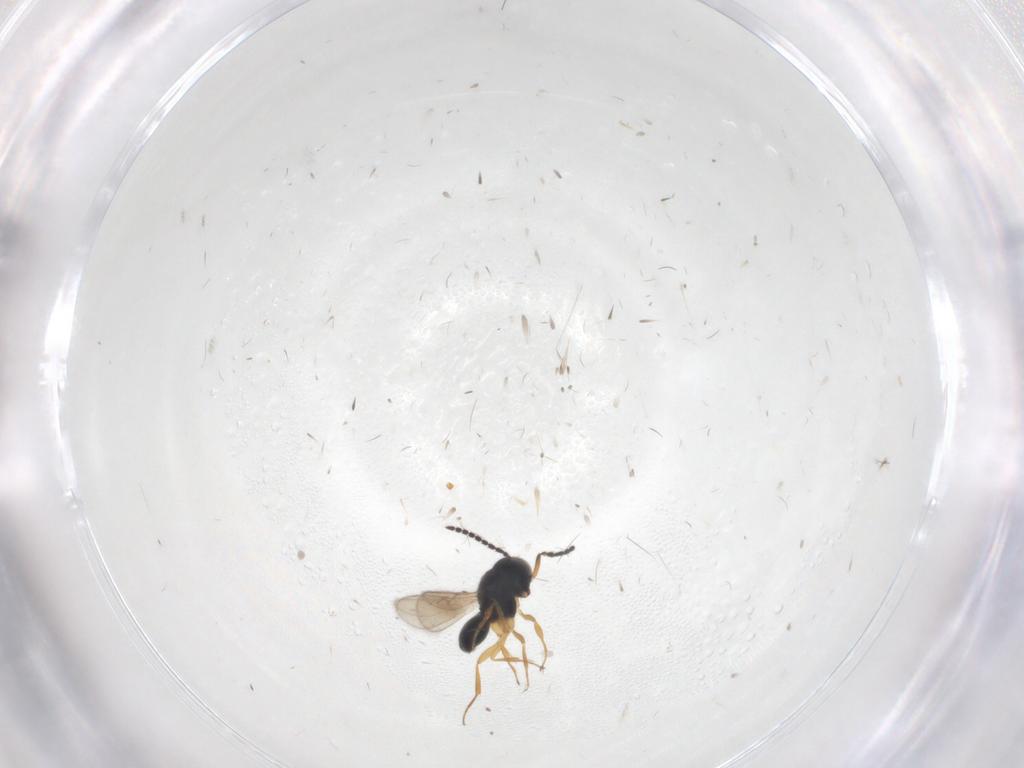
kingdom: Animalia
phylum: Arthropoda
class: Insecta
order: Hymenoptera
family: Scelionidae
